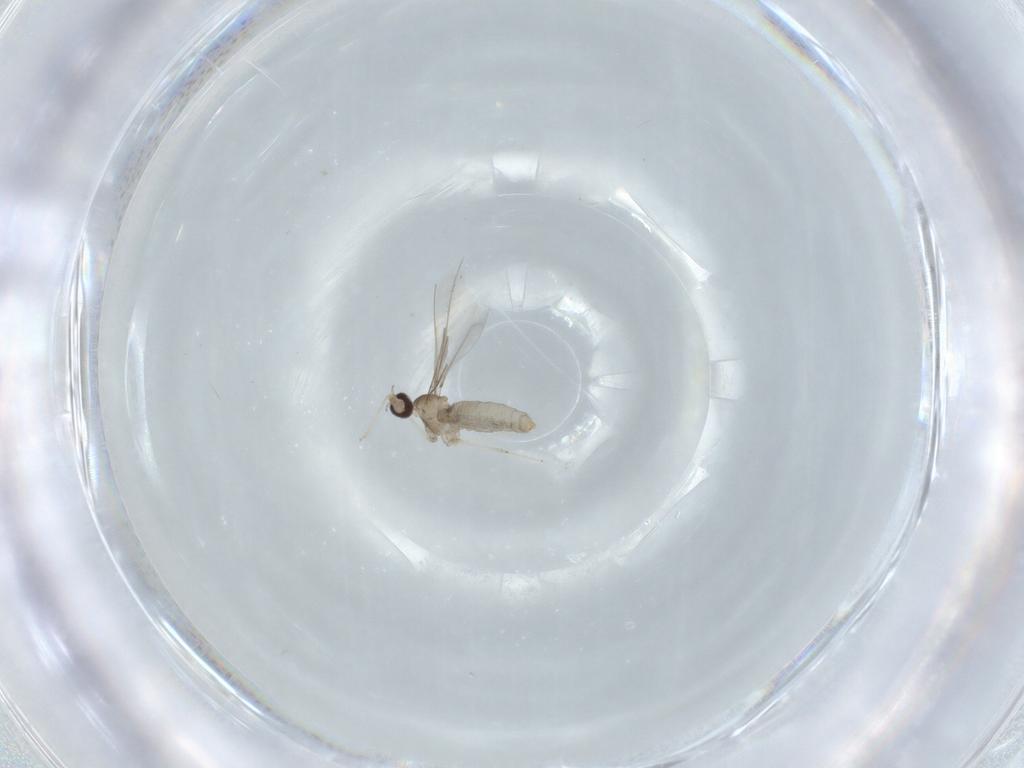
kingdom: Animalia
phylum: Arthropoda
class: Insecta
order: Diptera
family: Cecidomyiidae
